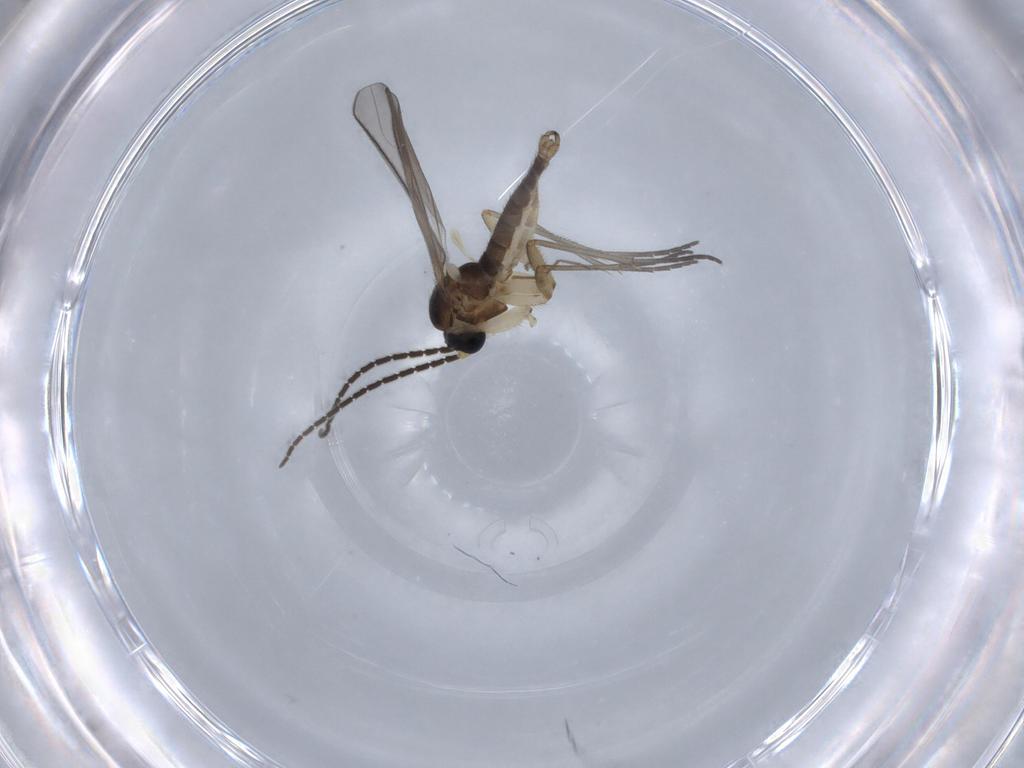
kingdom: Animalia
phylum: Arthropoda
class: Insecta
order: Diptera
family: Sciaridae
